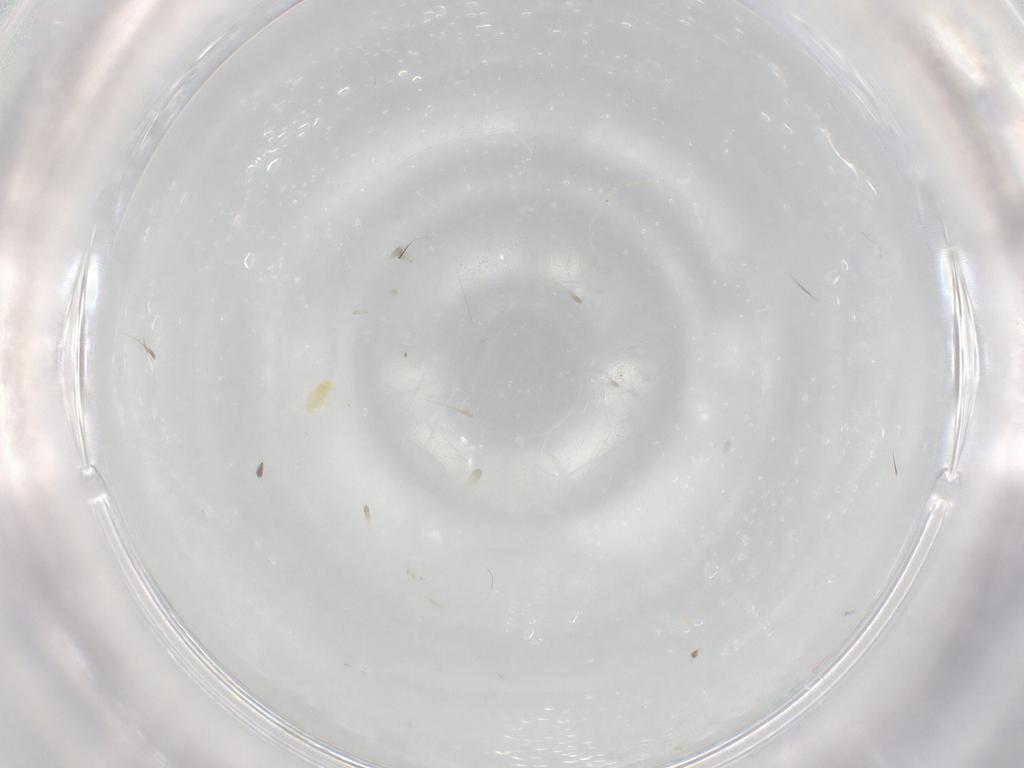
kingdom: Animalia
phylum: Arthropoda
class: Arachnida
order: Trombidiformes
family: Eupodidae
